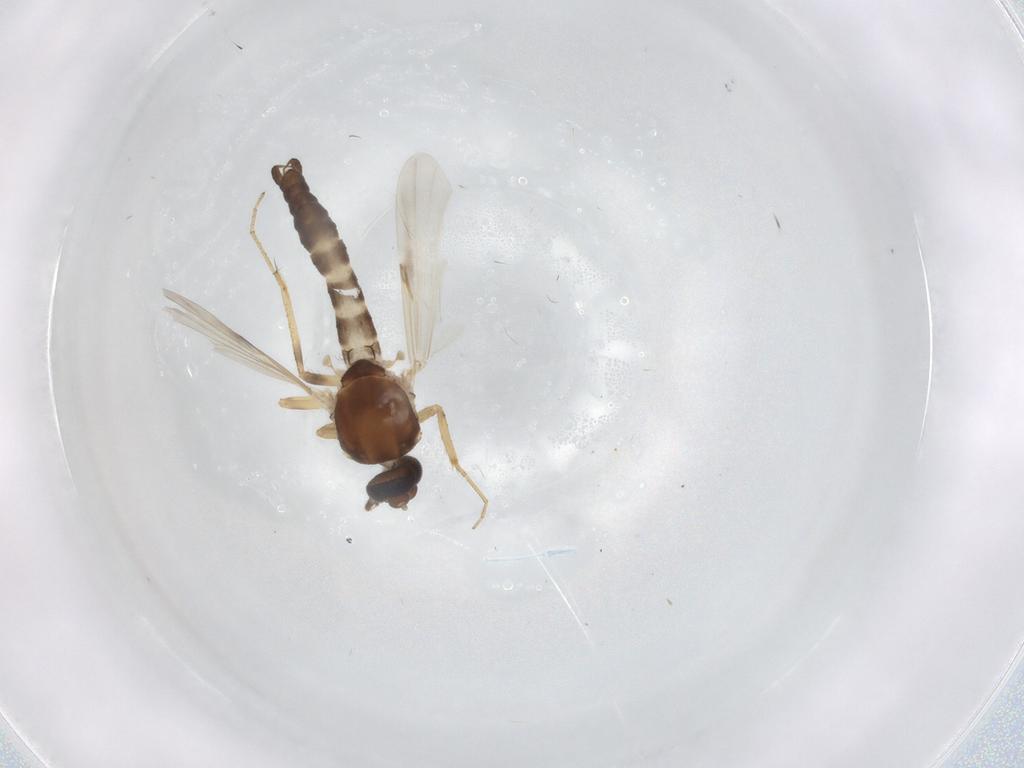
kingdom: Animalia
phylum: Arthropoda
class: Insecta
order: Diptera
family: Ceratopogonidae
